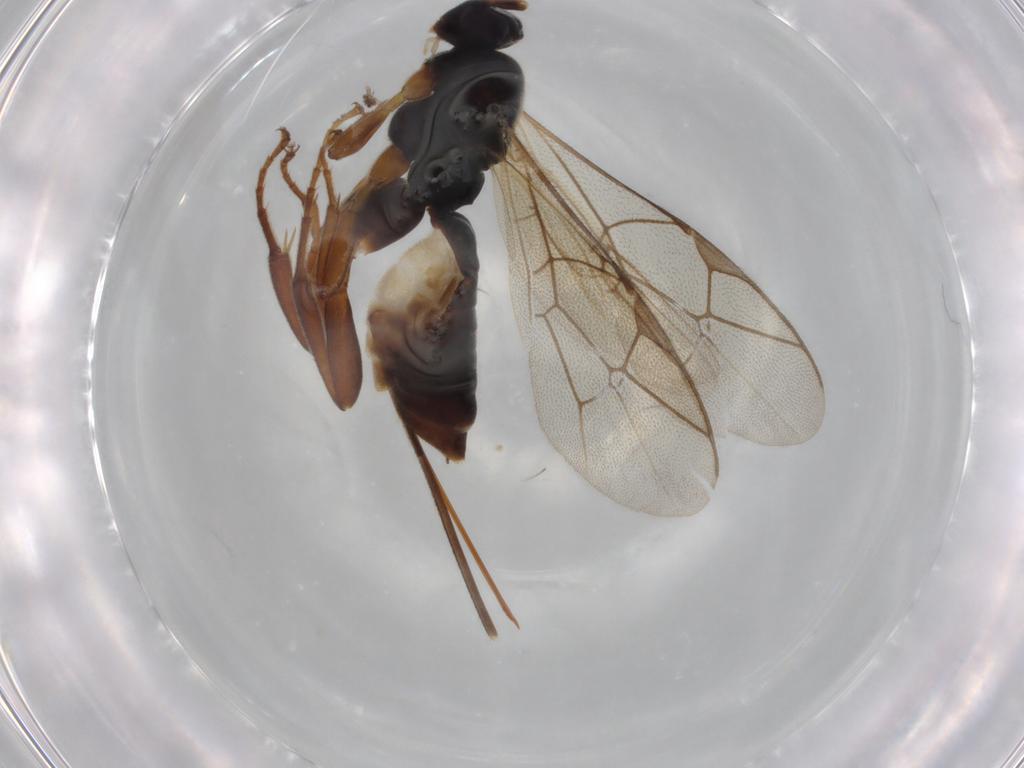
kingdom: Animalia
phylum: Arthropoda
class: Insecta
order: Hymenoptera
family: Ichneumonidae
